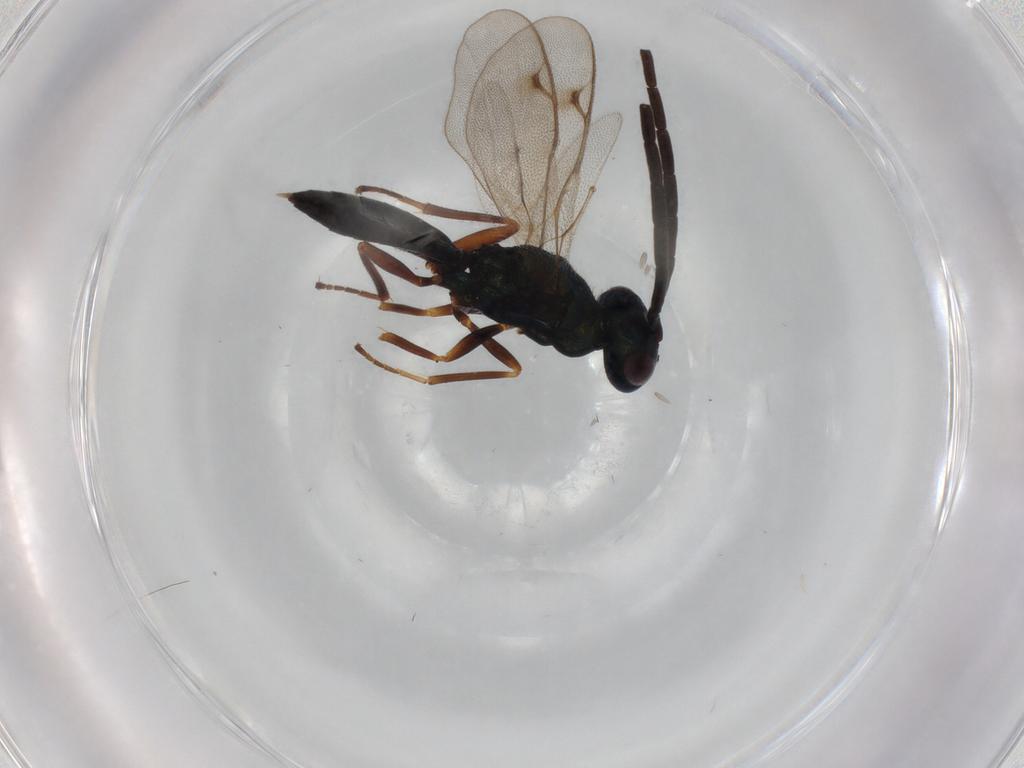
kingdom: Animalia
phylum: Arthropoda
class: Insecta
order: Hymenoptera
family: Pteromalidae
